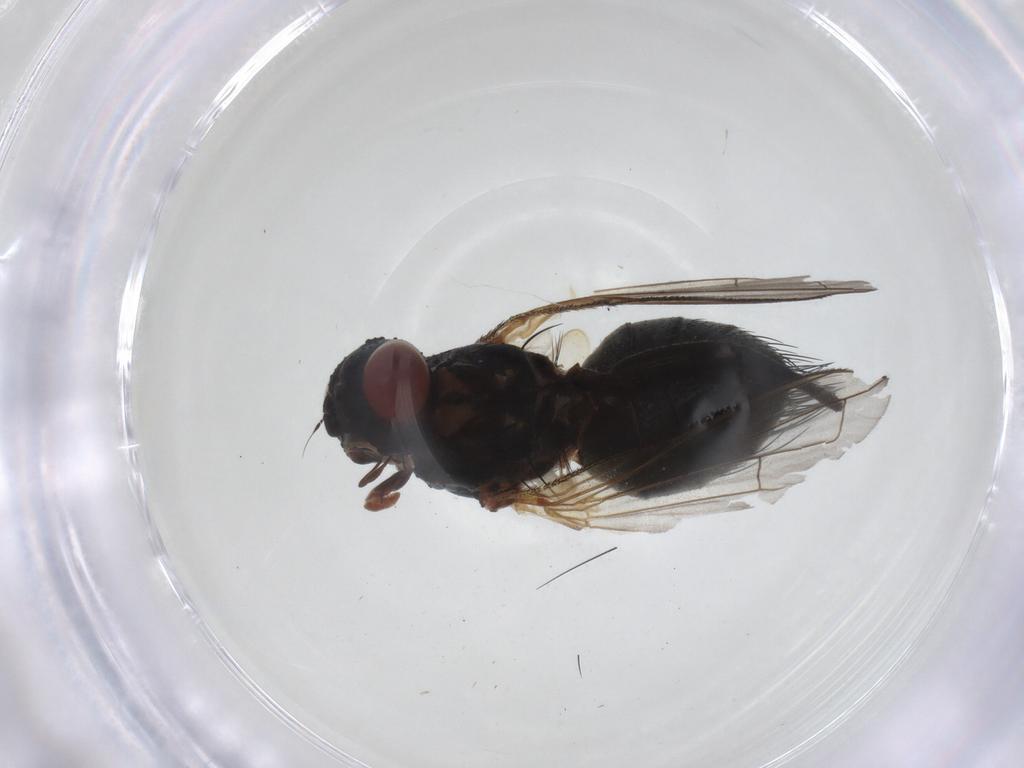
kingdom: Animalia
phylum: Arthropoda
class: Insecta
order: Diptera
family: Tachinidae
